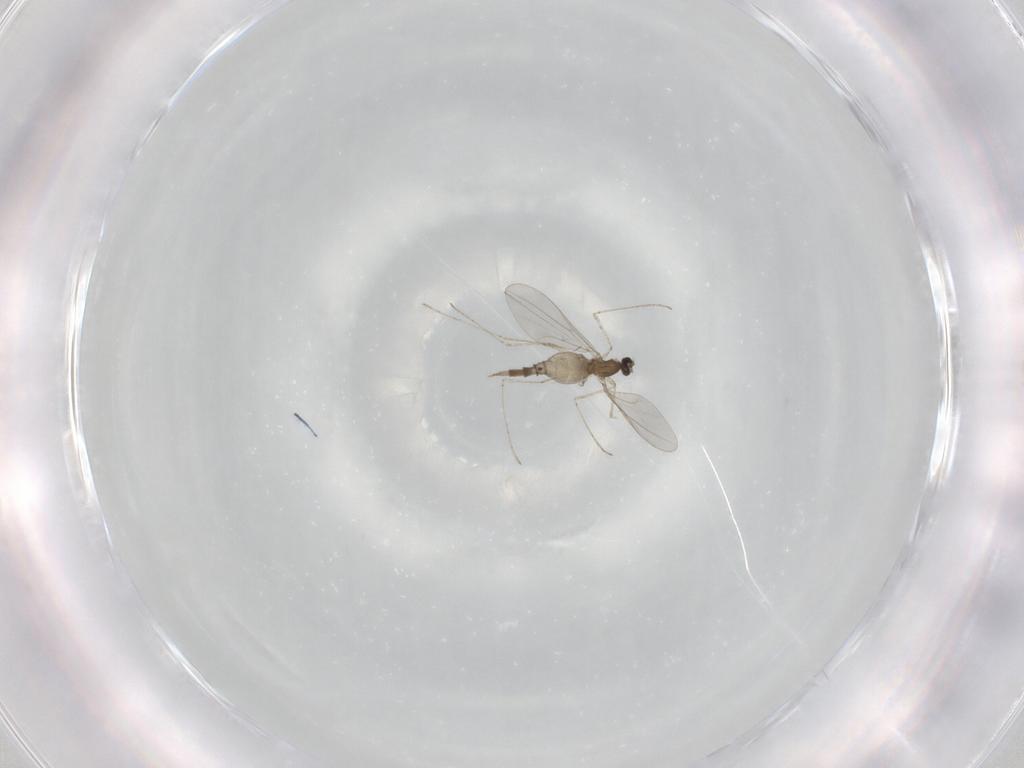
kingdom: Animalia
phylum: Arthropoda
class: Insecta
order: Diptera
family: Cecidomyiidae
